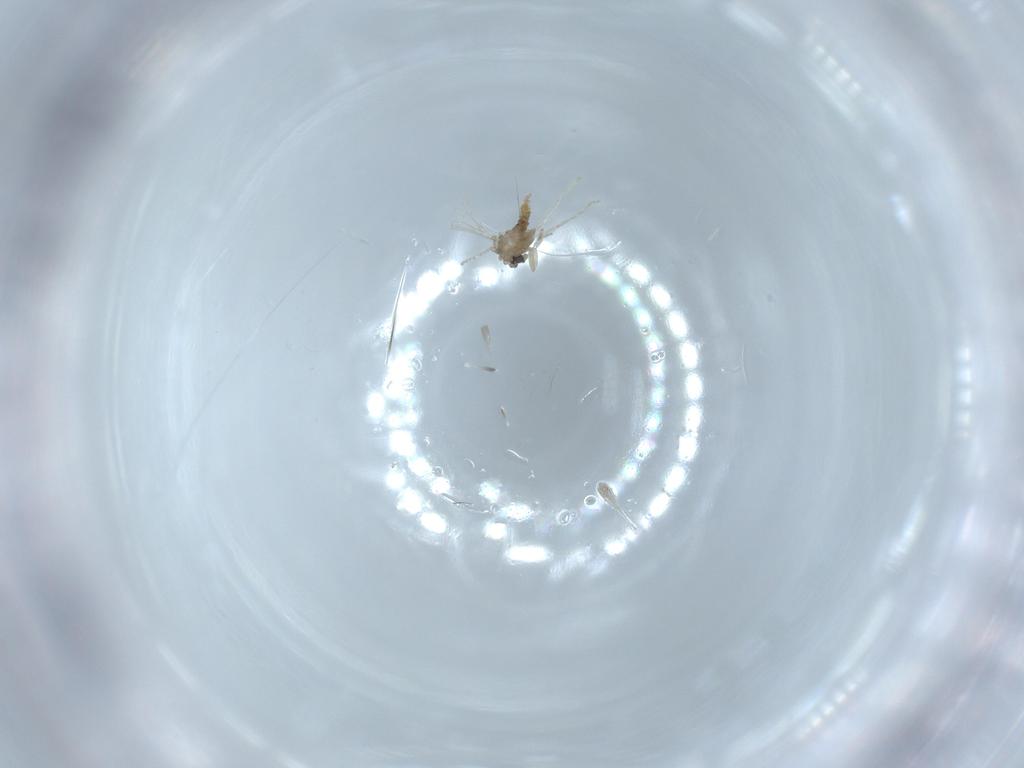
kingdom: Animalia
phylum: Arthropoda
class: Insecta
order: Diptera
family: Cecidomyiidae
